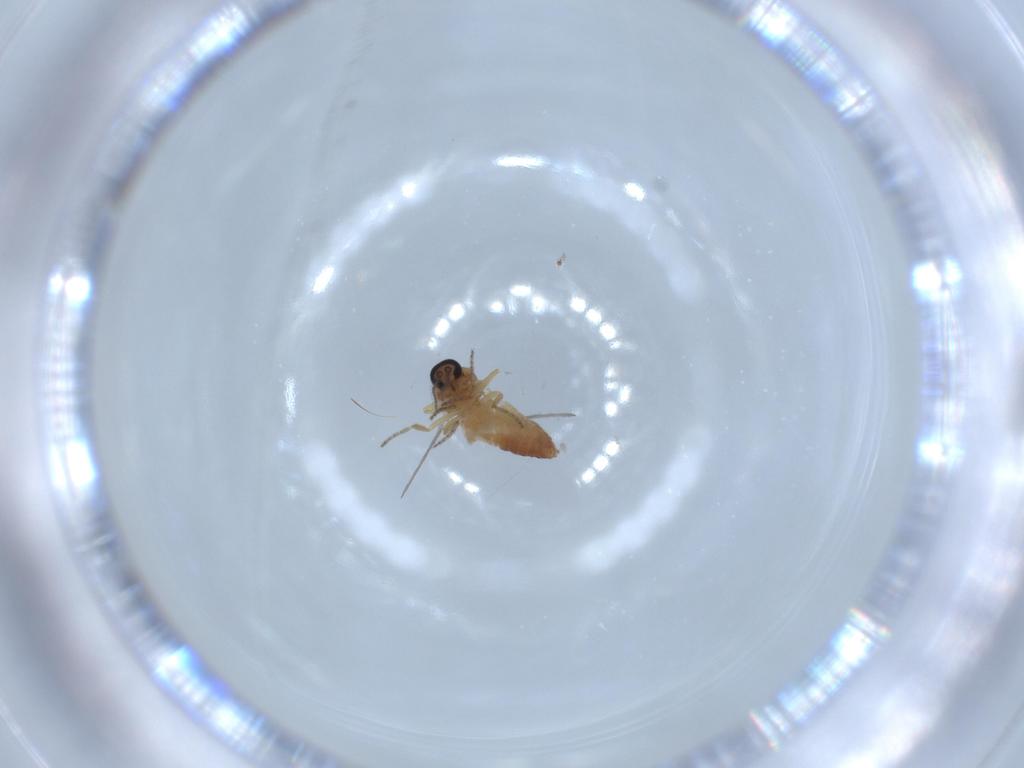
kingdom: Animalia
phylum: Arthropoda
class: Insecta
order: Diptera
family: Ceratopogonidae
